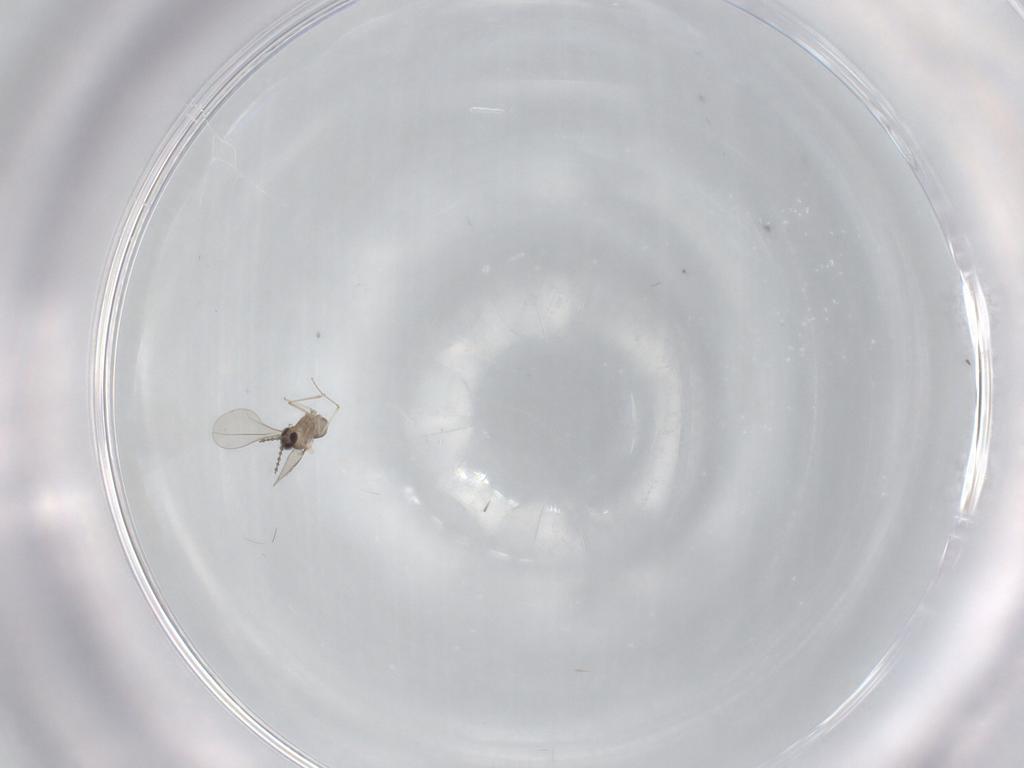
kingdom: Animalia
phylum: Arthropoda
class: Insecta
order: Diptera
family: Cecidomyiidae
